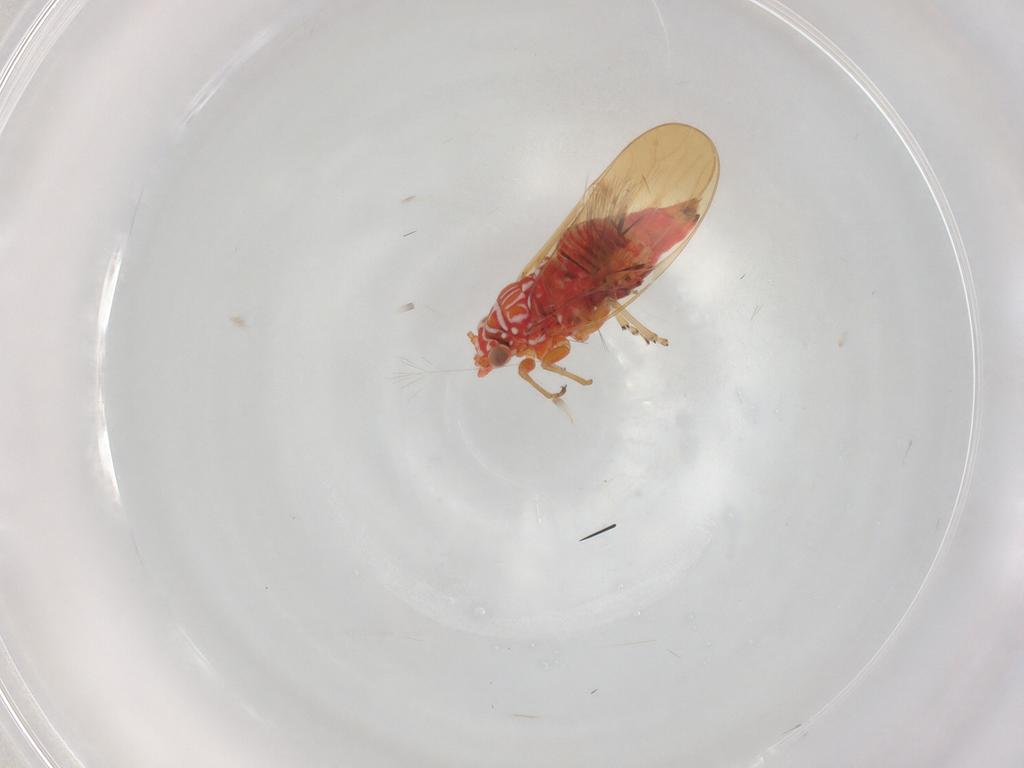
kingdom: Animalia
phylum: Arthropoda
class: Insecta
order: Hemiptera
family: Psyllidae
